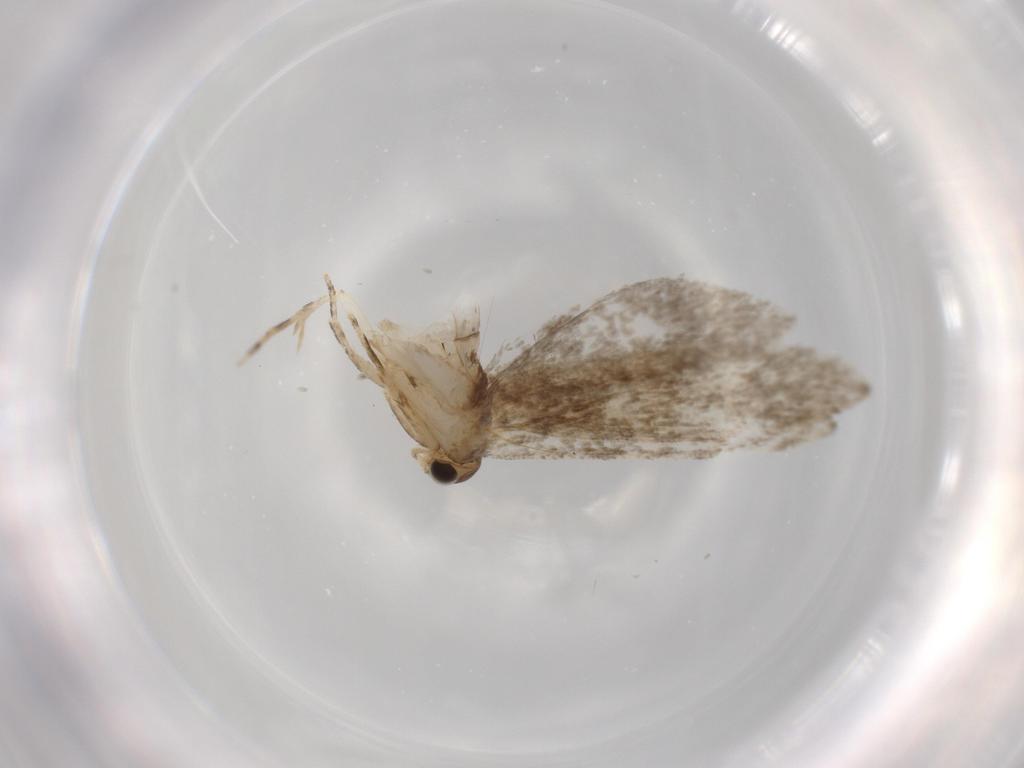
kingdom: Animalia
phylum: Arthropoda
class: Insecta
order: Lepidoptera
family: Tineidae
